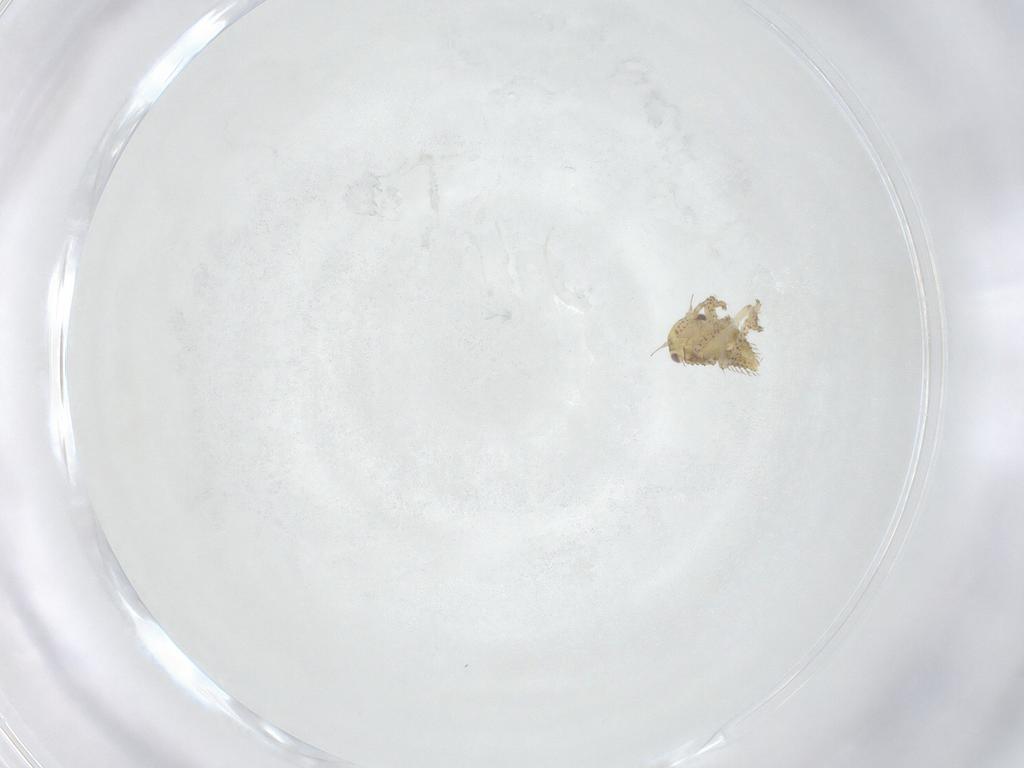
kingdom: Animalia
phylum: Arthropoda
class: Insecta
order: Hemiptera
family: Cicadellidae
